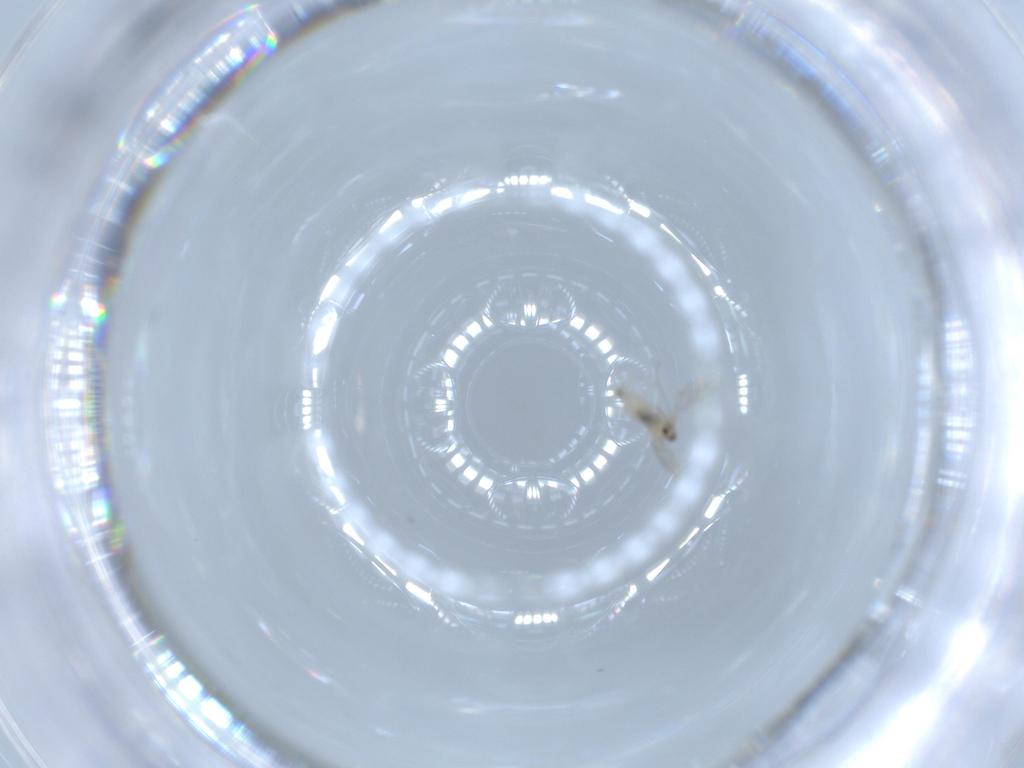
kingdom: Animalia
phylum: Arthropoda
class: Insecta
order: Diptera
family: Cecidomyiidae
